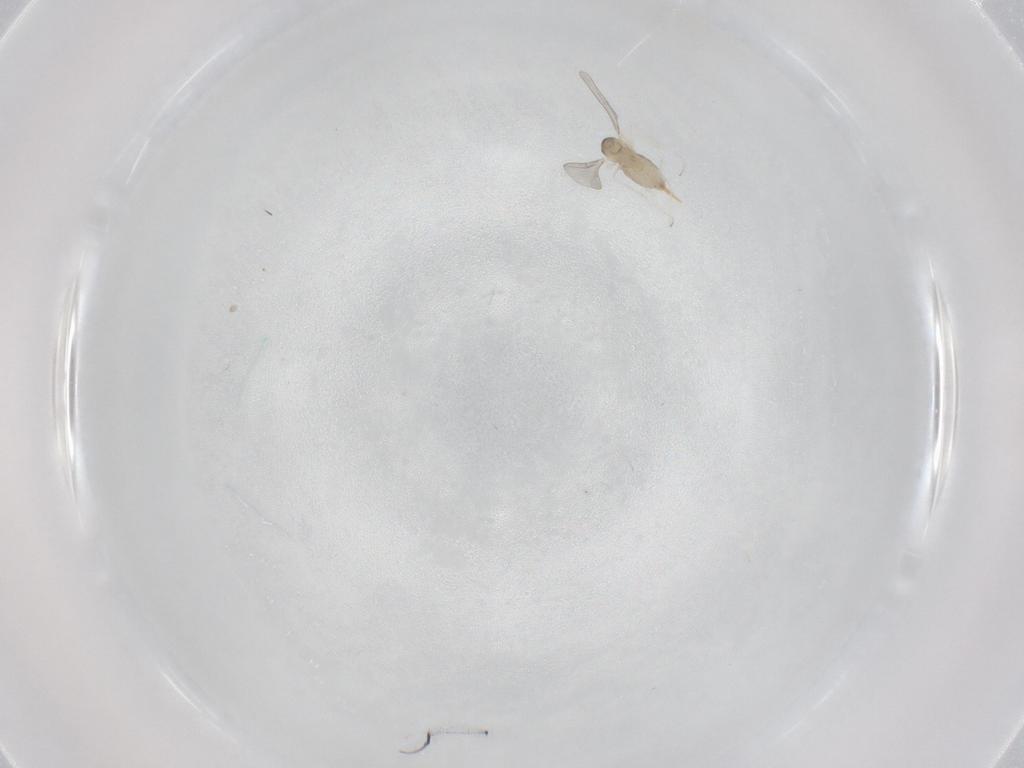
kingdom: Animalia
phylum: Arthropoda
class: Insecta
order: Diptera
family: Cecidomyiidae
